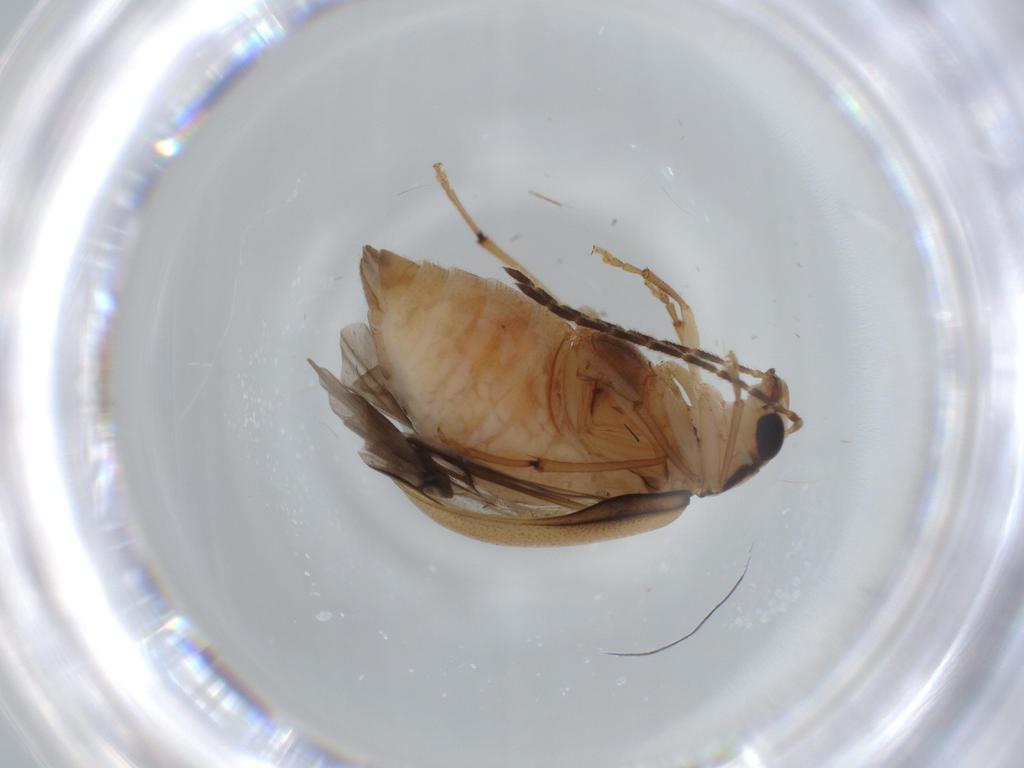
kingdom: Animalia
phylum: Arthropoda
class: Insecta
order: Coleoptera
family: Chrysomelidae
